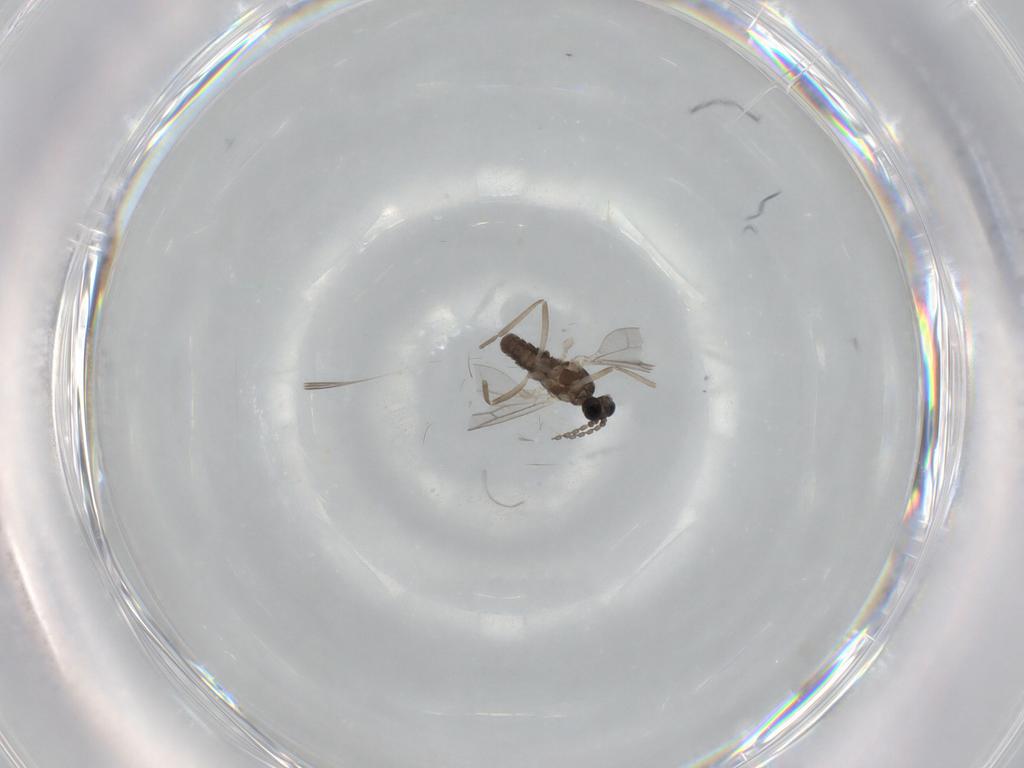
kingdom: Animalia
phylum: Arthropoda
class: Insecta
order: Diptera
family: Cecidomyiidae
